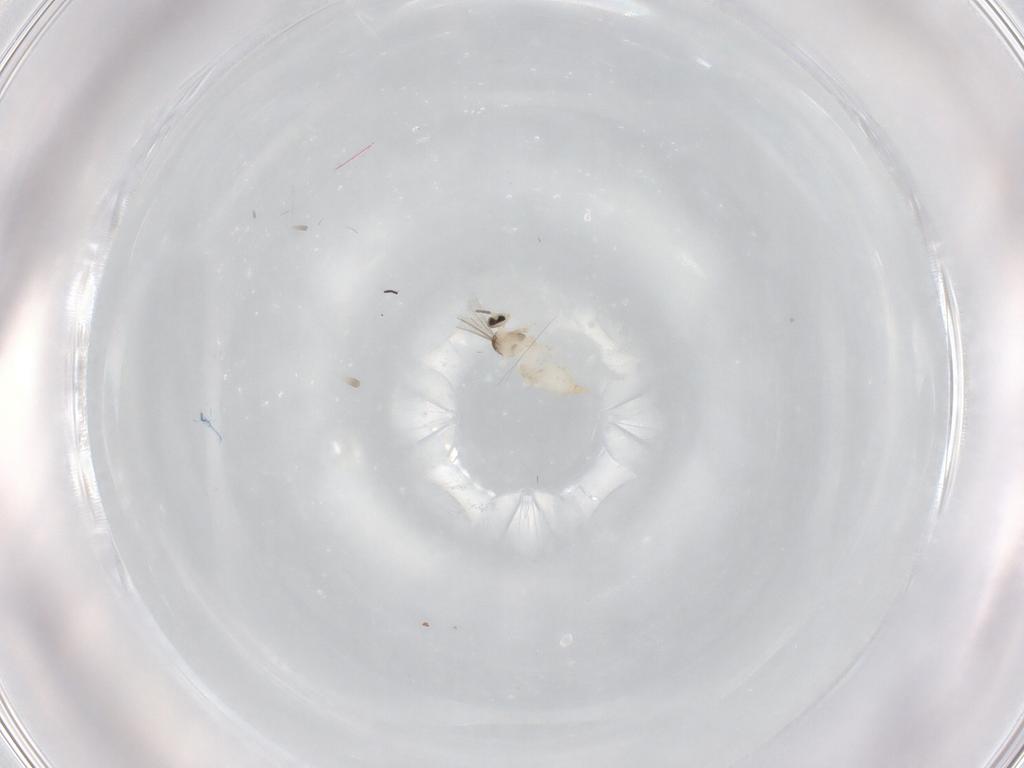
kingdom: Animalia
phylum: Arthropoda
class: Insecta
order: Diptera
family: Cecidomyiidae
